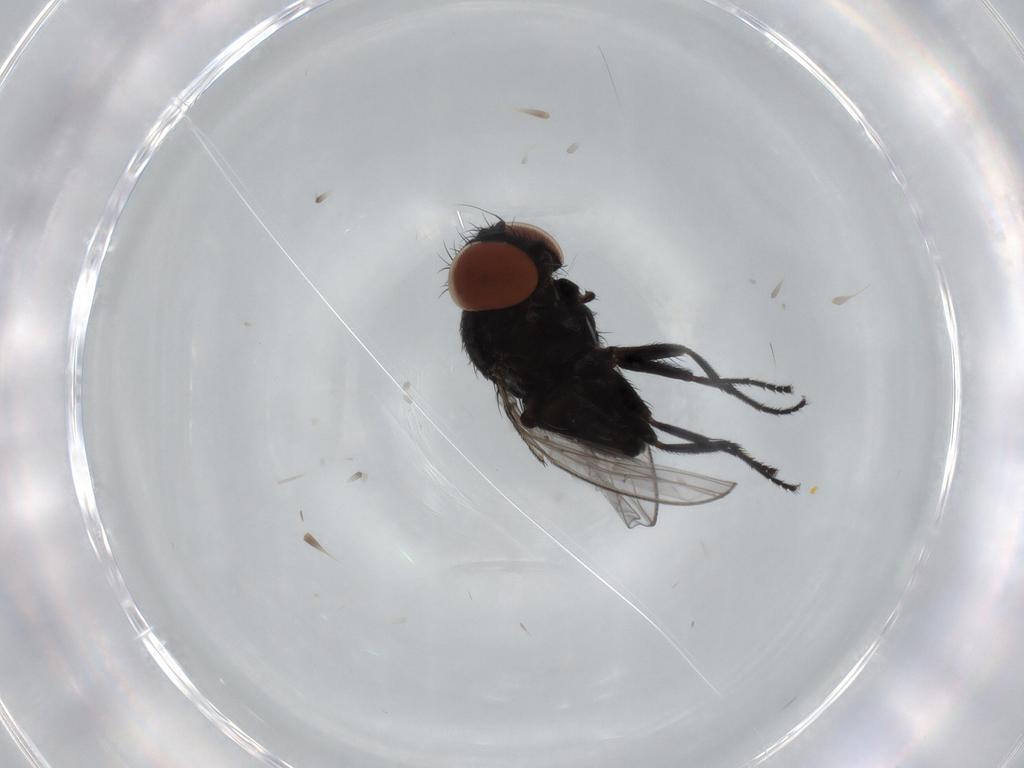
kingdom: Animalia
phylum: Arthropoda
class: Insecta
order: Diptera
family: Milichiidae
